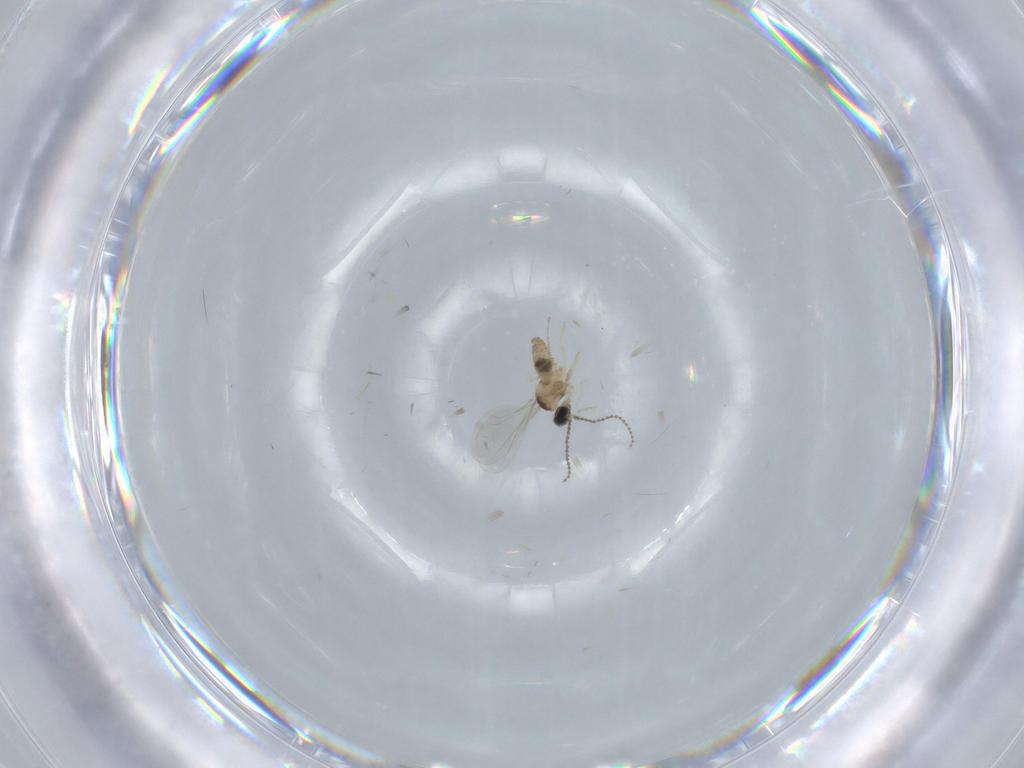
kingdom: Animalia
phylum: Arthropoda
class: Insecta
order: Diptera
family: Cecidomyiidae
